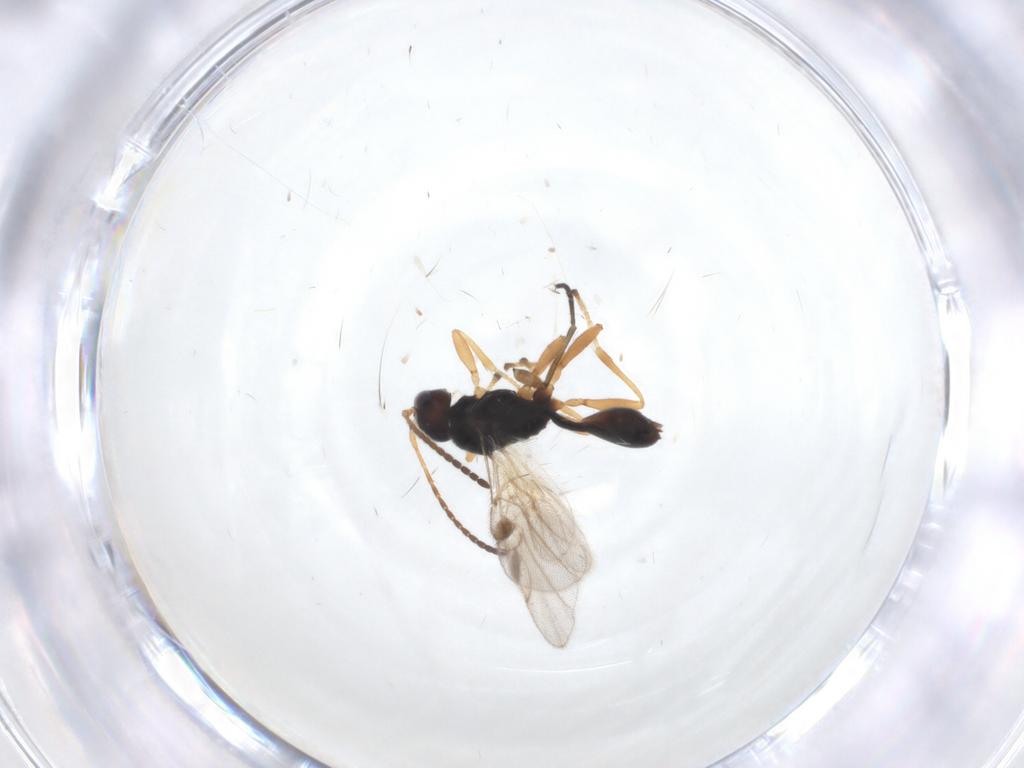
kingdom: Animalia
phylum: Arthropoda
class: Insecta
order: Hymenoptera
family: Braconidae
